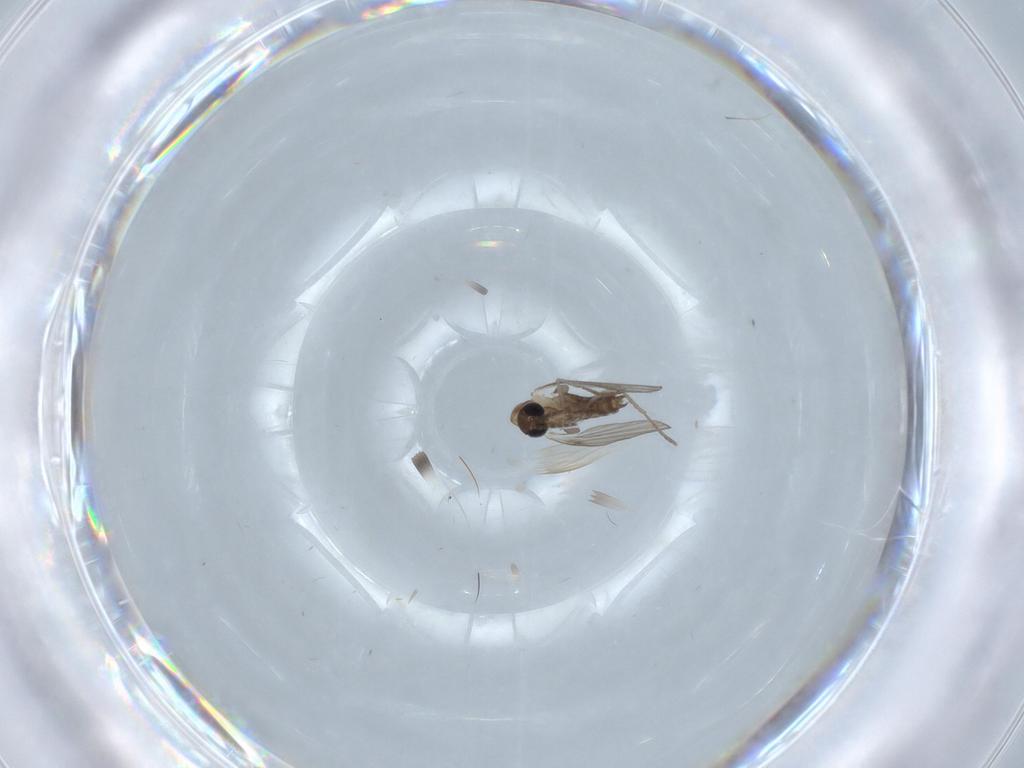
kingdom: Animalia
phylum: Arthropoda
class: Insecta
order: Diptera
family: Psychodidae
